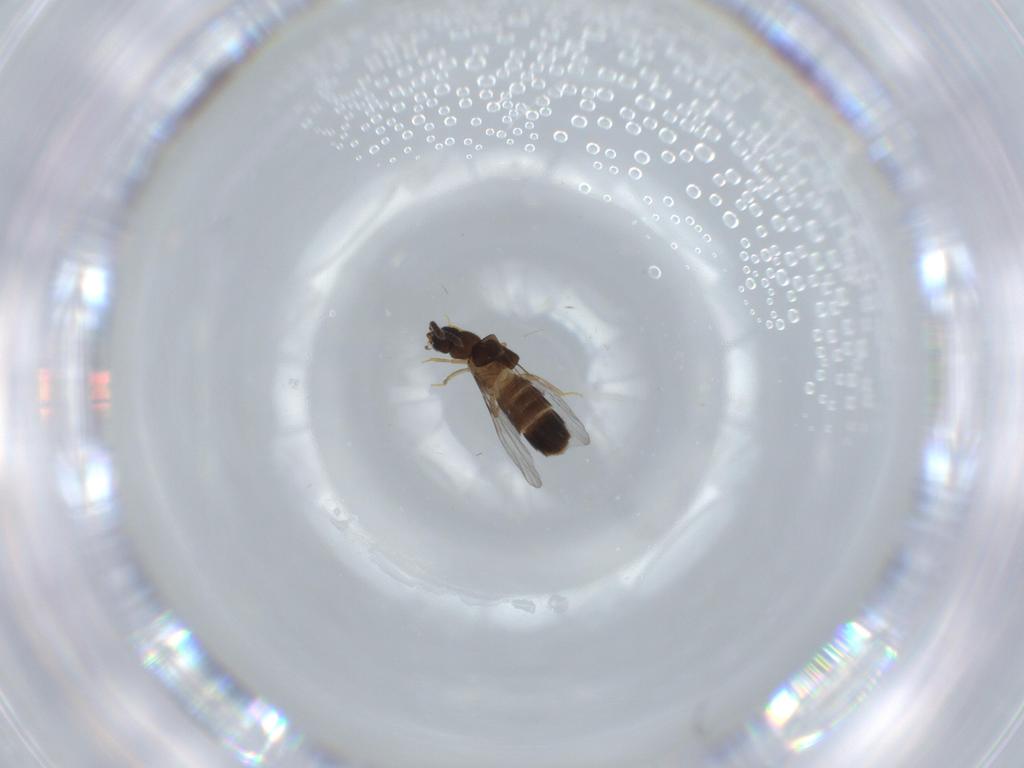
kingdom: Animalia
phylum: Arthropoda
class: Insecta
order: Coleoptera
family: Staphylinidae
